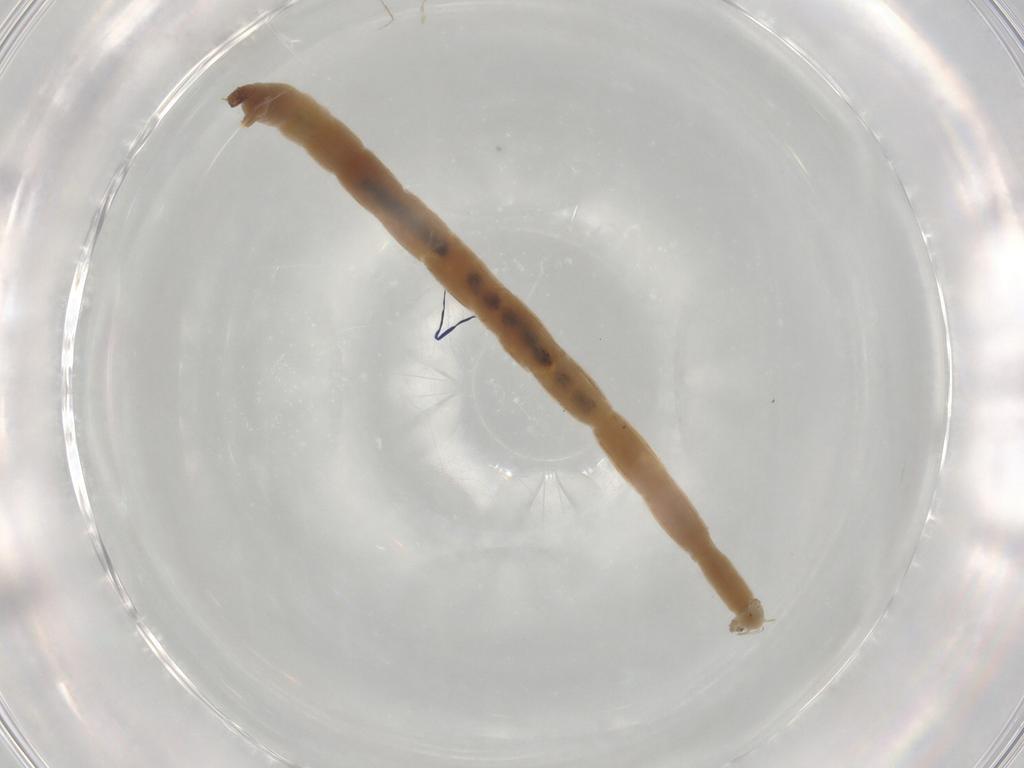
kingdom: Animalia
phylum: Arthropoda
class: Insecta
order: Diptera
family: Chironomidae
